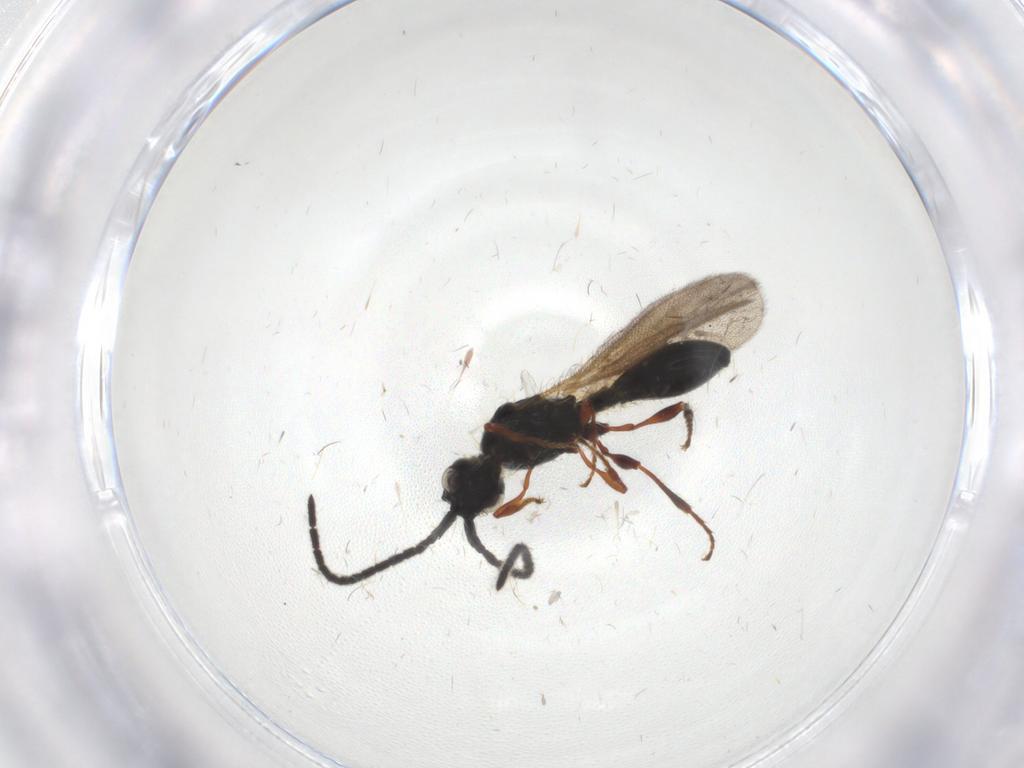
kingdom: Animalia
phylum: Arthropoda
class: Insecta
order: Hymenoptera
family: Diapriidae
